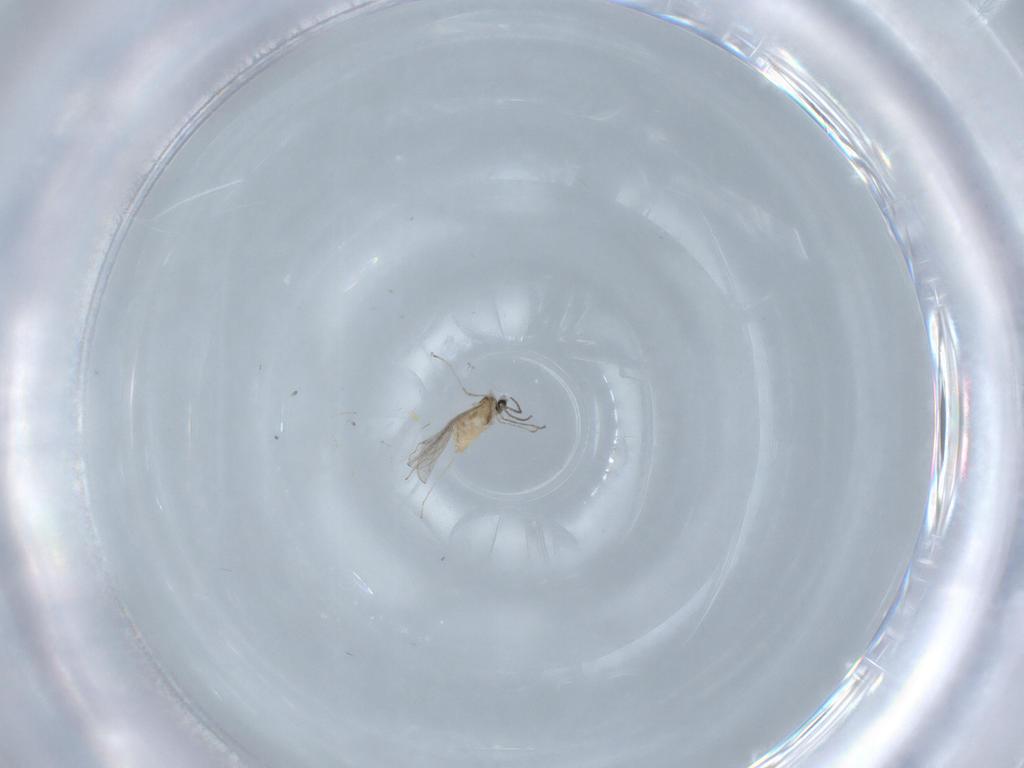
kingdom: Animalia
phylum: Arthropoda
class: Insecta
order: Diptera
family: Cecidomyiidae
